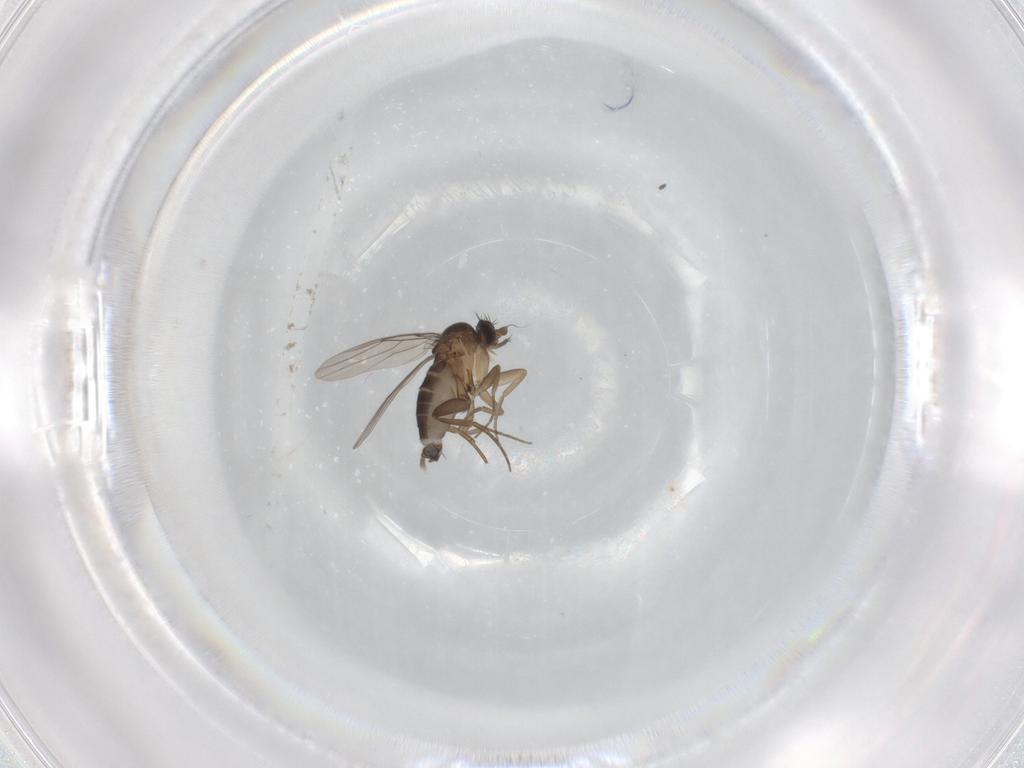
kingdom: Animalia
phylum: Arthropoda
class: Insecta
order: Diptera
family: Phoridae
